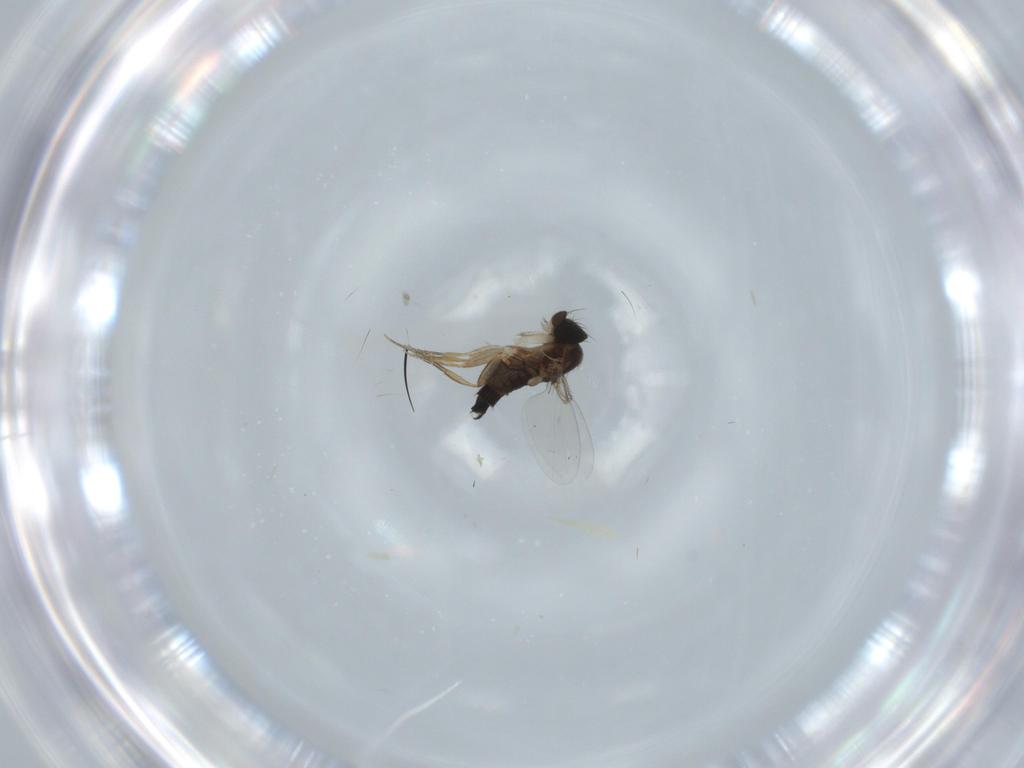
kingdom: Animalia
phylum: Arthropoda
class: Insecta
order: Diptera
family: Phoridae
